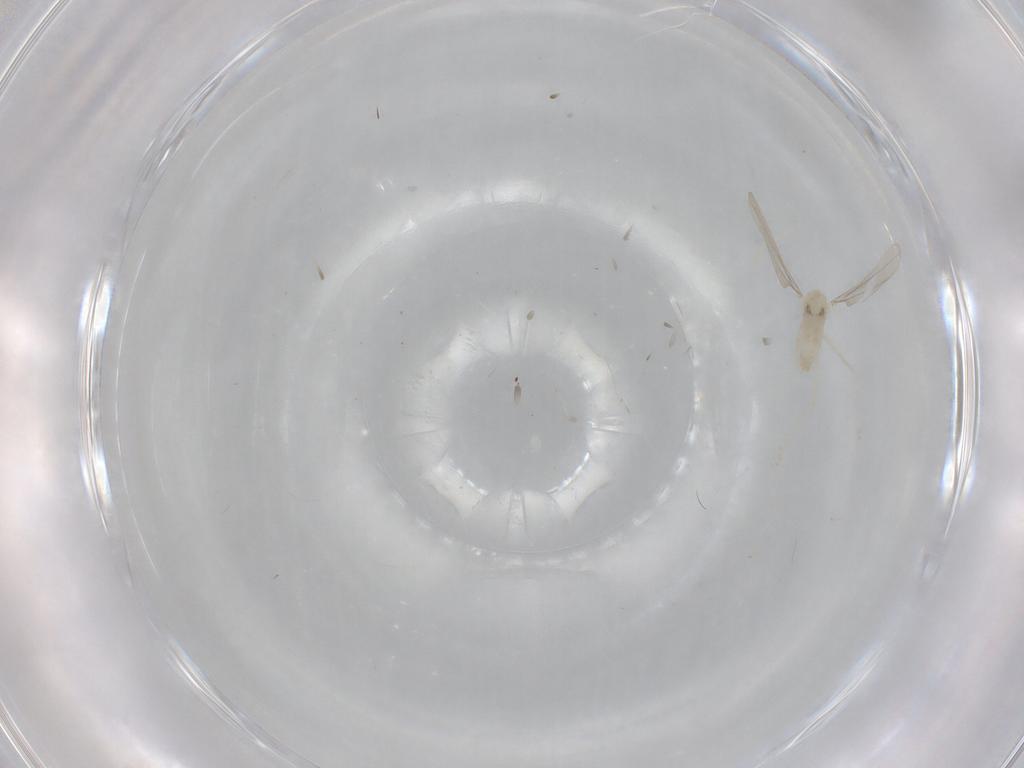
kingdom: Animalia
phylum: Arthropoda
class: Insecta
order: Diptera
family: Cecidomyiidae
